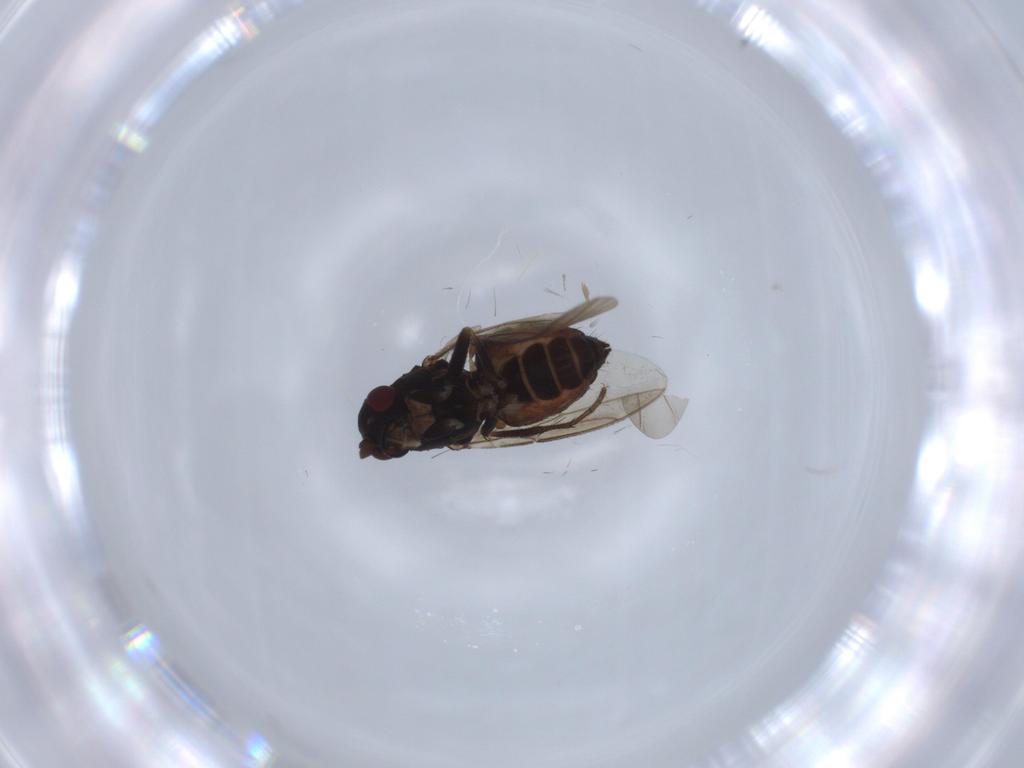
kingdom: Animalia
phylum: Arthropoda
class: Insecta
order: Diptera
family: Sphaeroceridae
